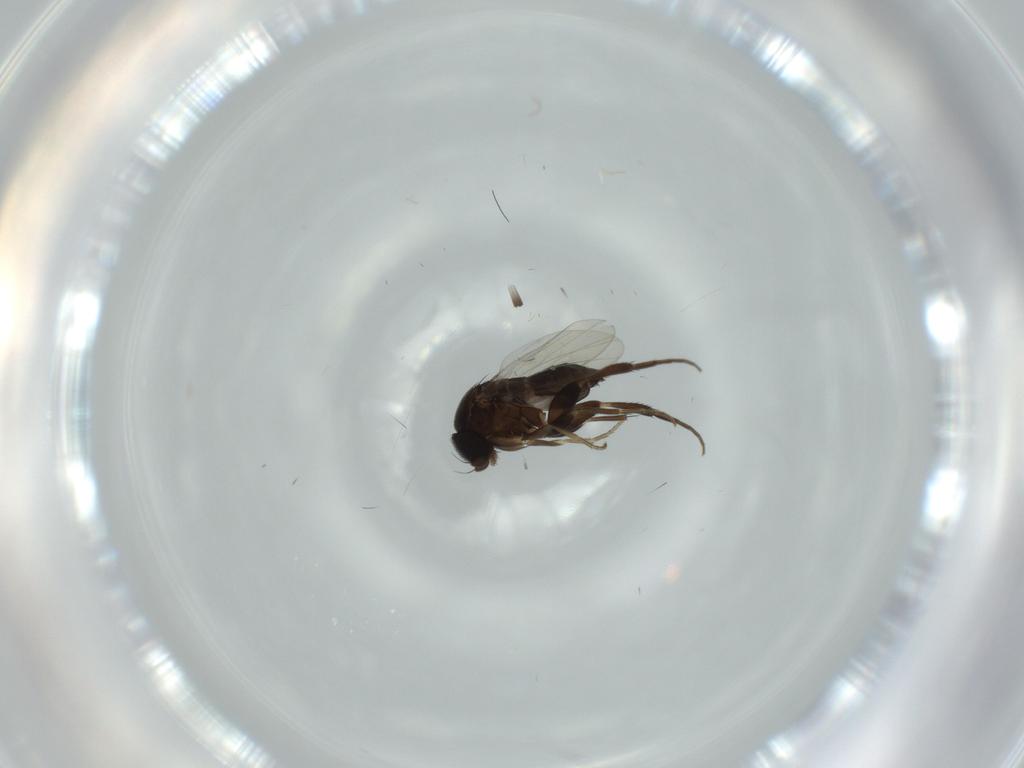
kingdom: Animalia
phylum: Arthropoda
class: Insecta
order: Diptera
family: Phoridae
